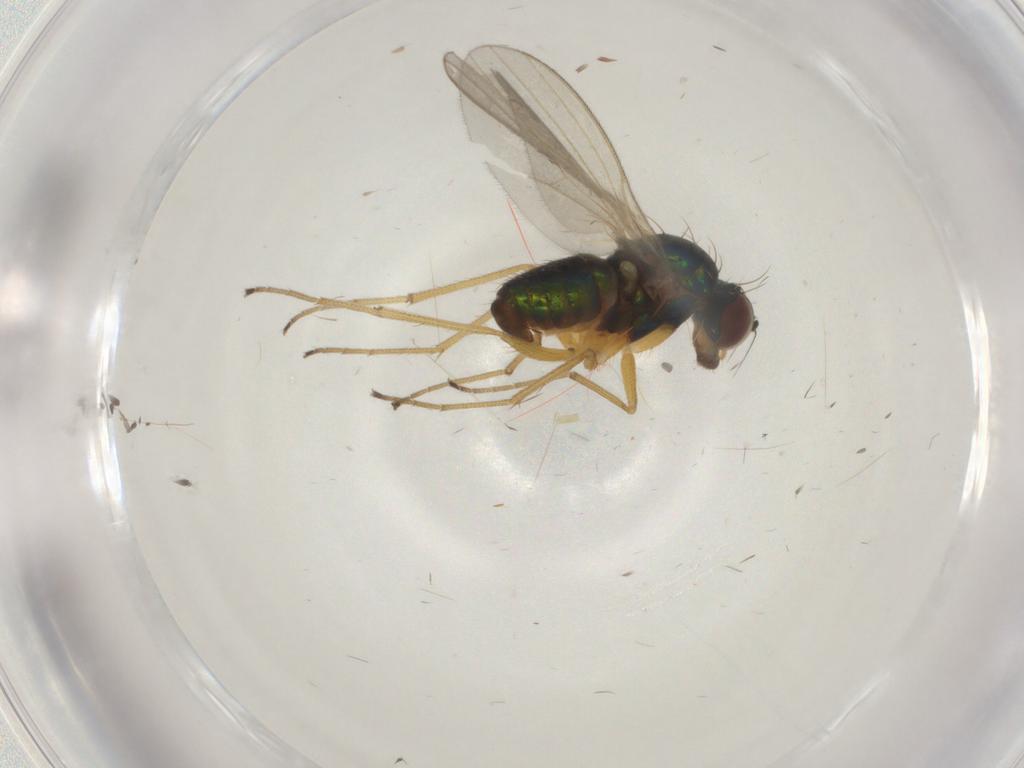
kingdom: Animalia
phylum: Arthropoda
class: Insecta
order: Diptera
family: Dolichopodidae
